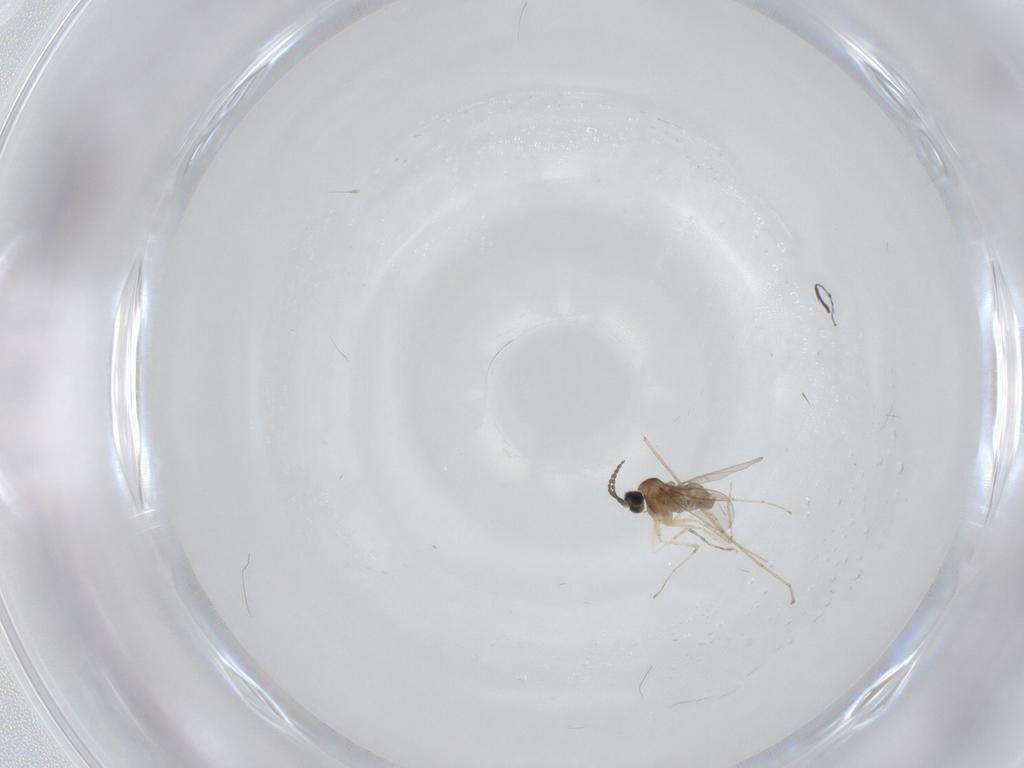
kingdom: Animalia
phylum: Arthropoda
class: Insecta
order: Diptera
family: Cecidomyiidae
